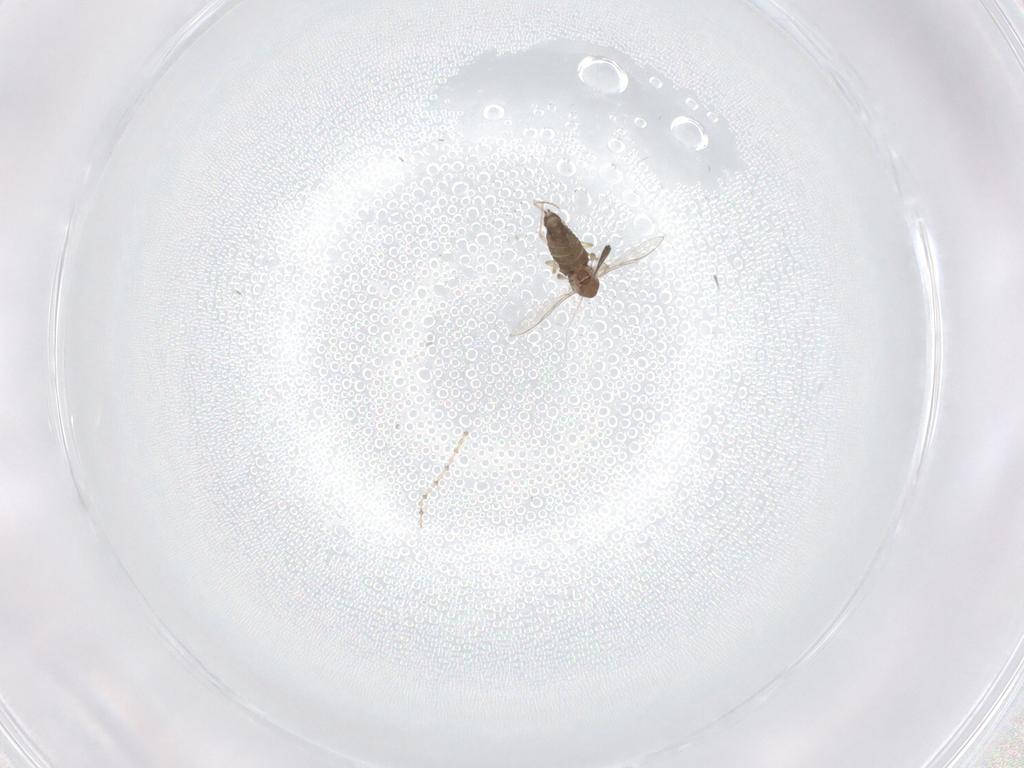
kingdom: Animalia
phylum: Arthropoda
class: Insecta
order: Diptera
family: Cecidomyiidae
